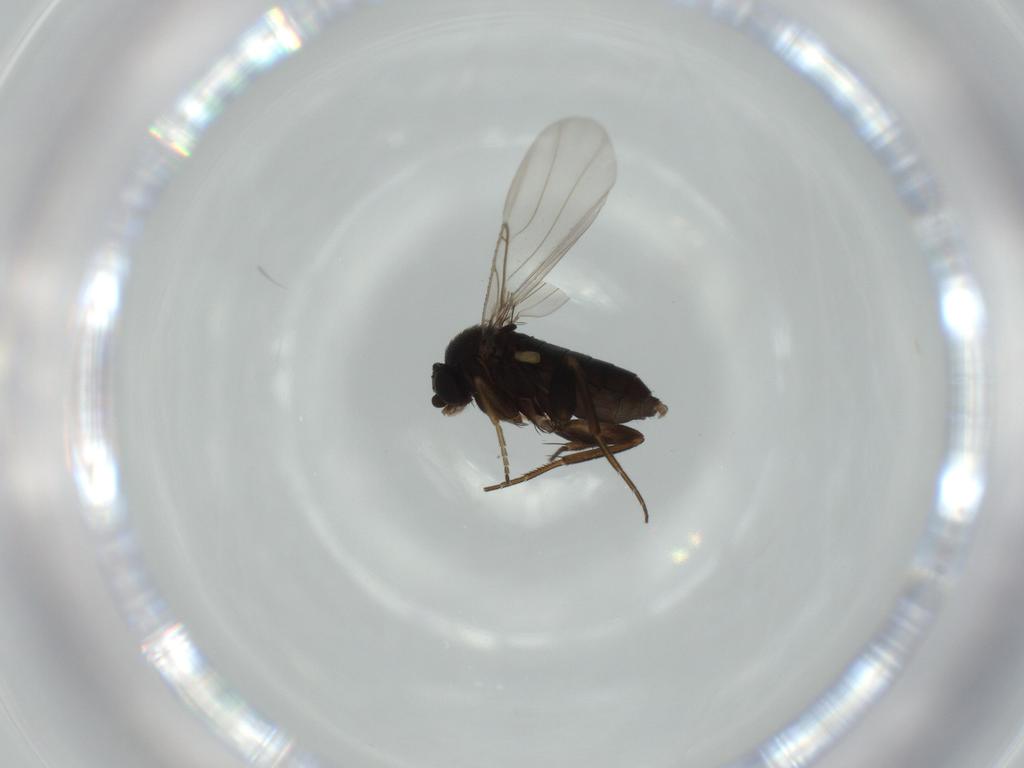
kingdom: Animalia
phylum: Arthropoda
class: Insecta
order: Diptera
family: Phoridae
